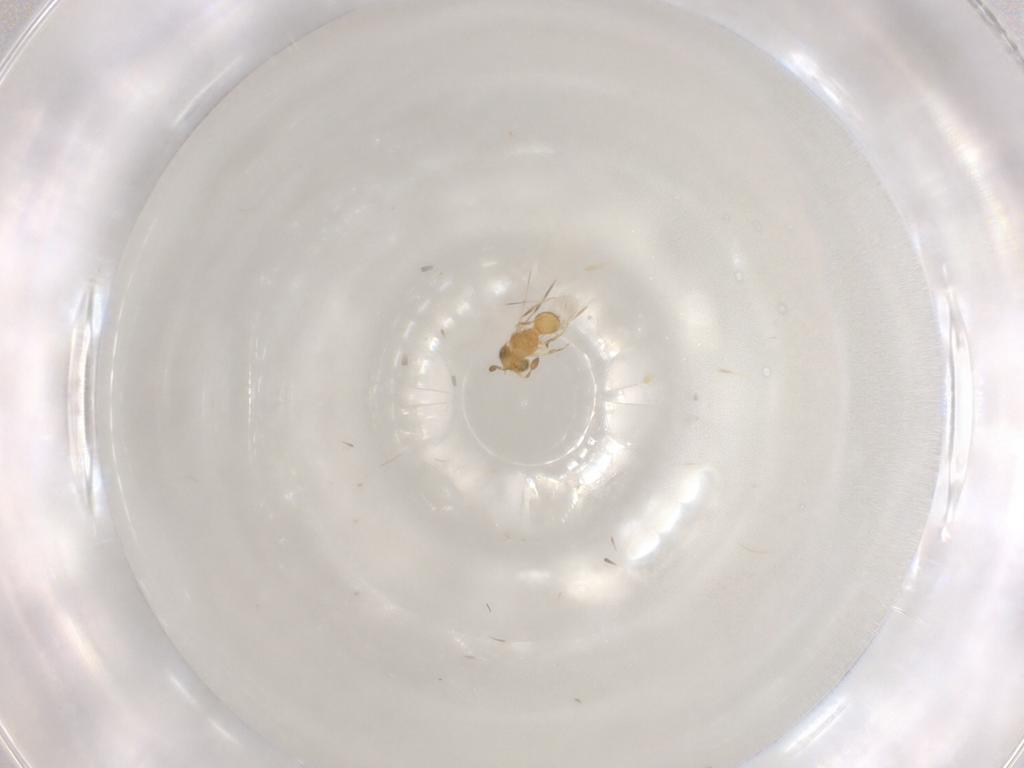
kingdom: Animalia
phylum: Arthropoda
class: Insecta
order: Hymenoptera
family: Scelionidae
